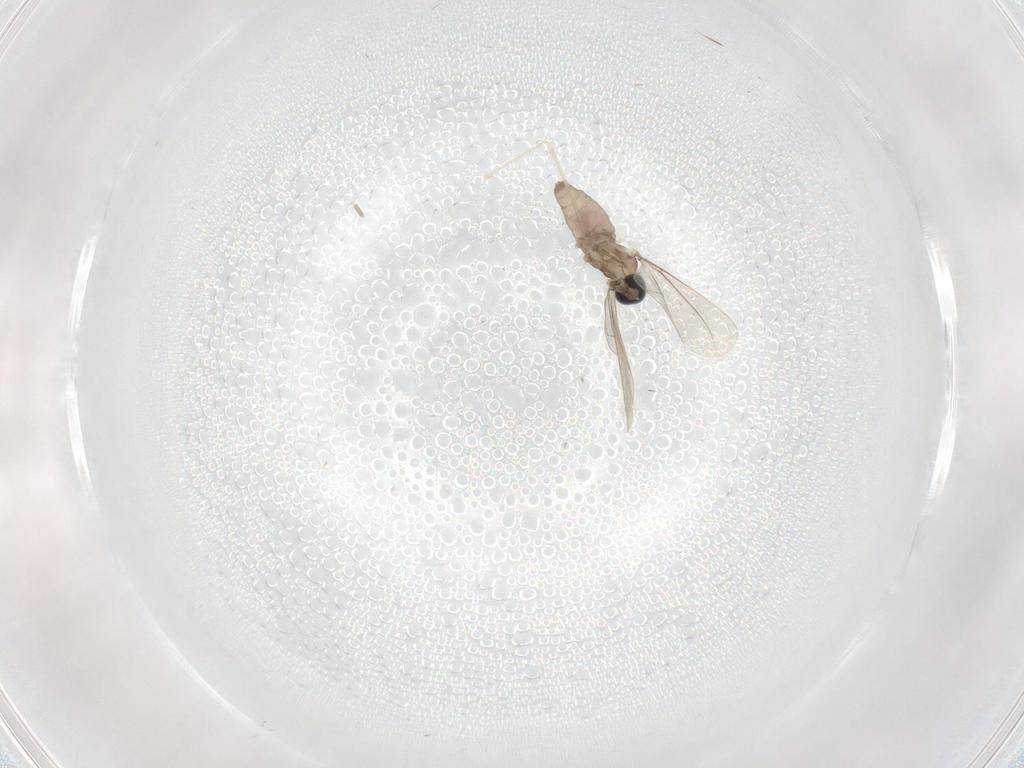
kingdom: Animalia
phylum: Arthropoda
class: Insecta
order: Diptera
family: Cecidomyiidae
